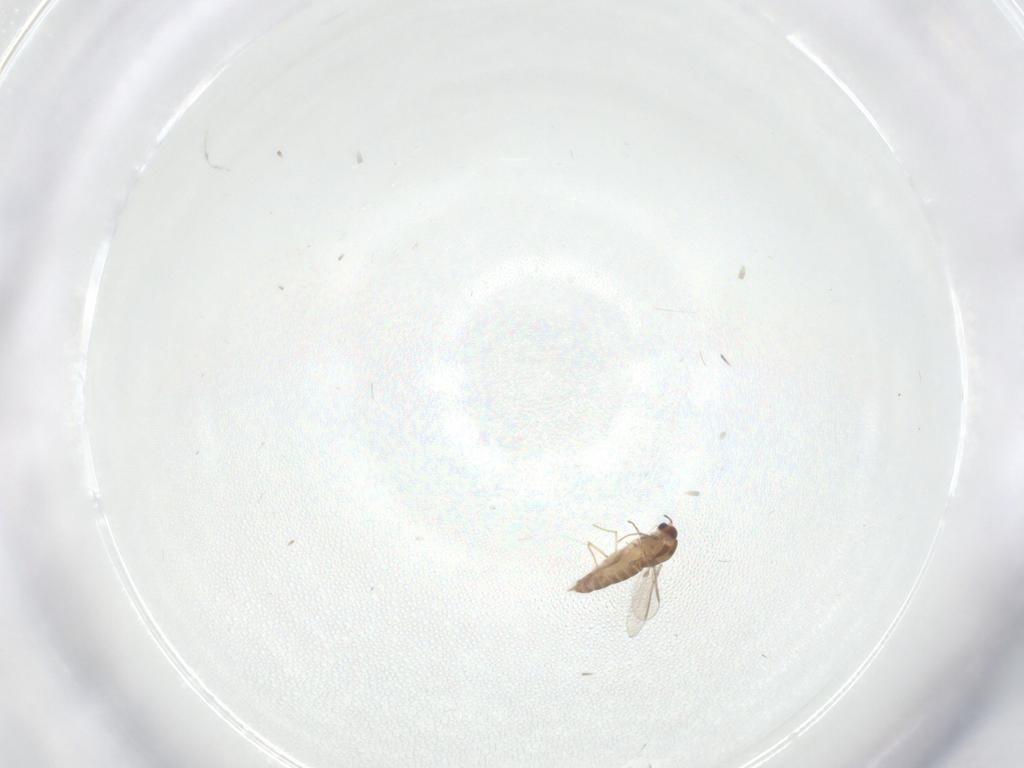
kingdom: Animalia
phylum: Arthropoda
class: Insecta
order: Diptera
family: Dolichopodidae
